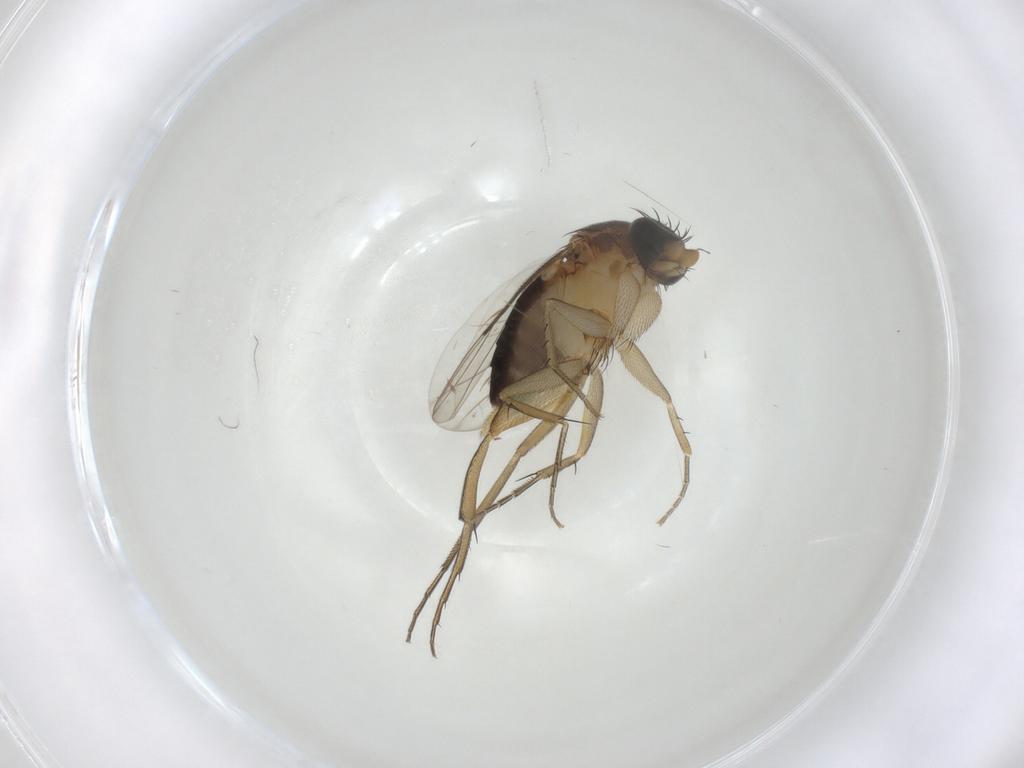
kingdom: Animalia
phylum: Arthropoda
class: Insecta
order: Diptera
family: Phoridae
